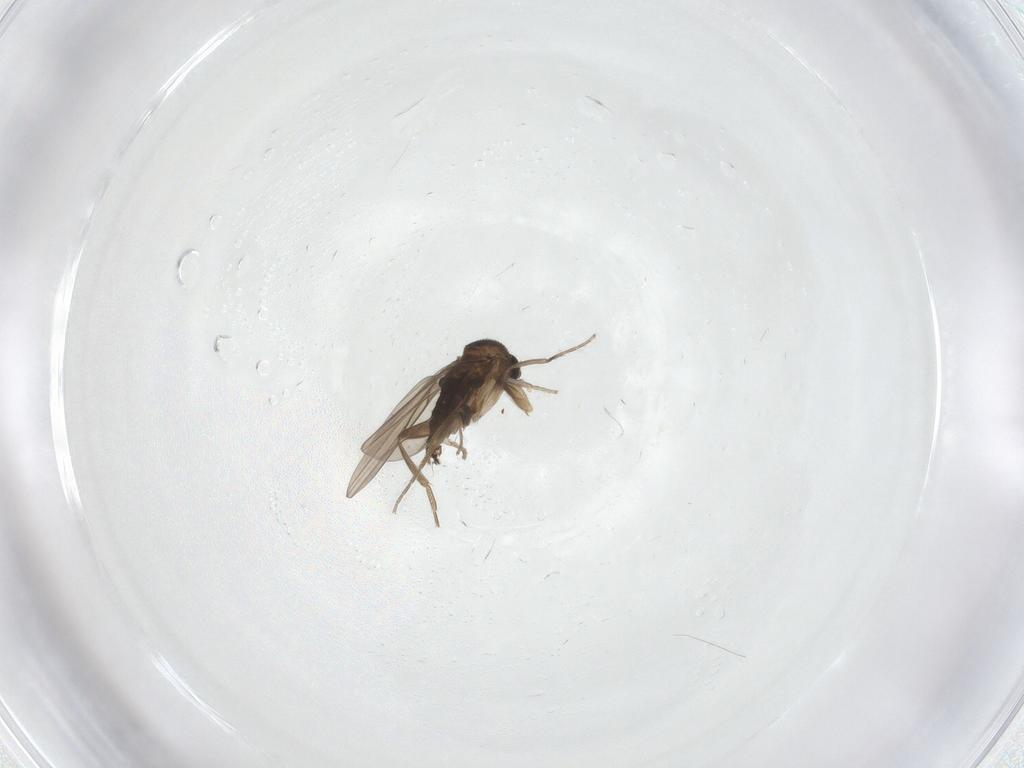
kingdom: Animalia
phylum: Arthropoda
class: Insecta
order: Diptera
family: Phoridae
